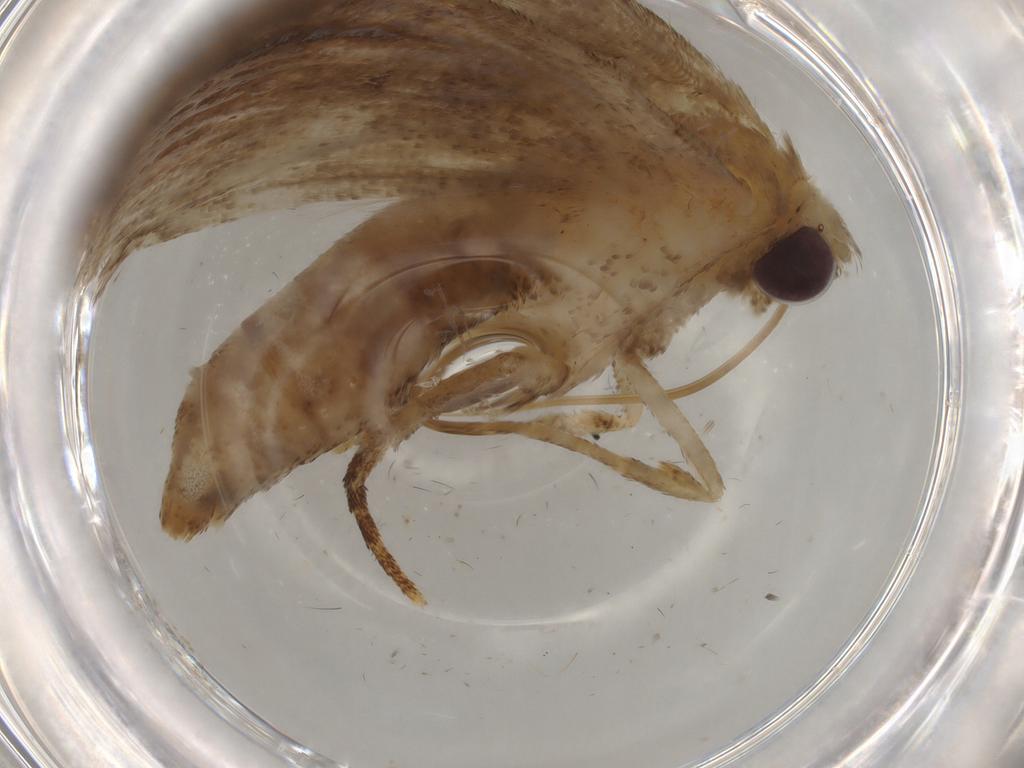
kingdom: Animalia
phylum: Arthropoda
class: Insecta
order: Lepidoptera
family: Erebidae
